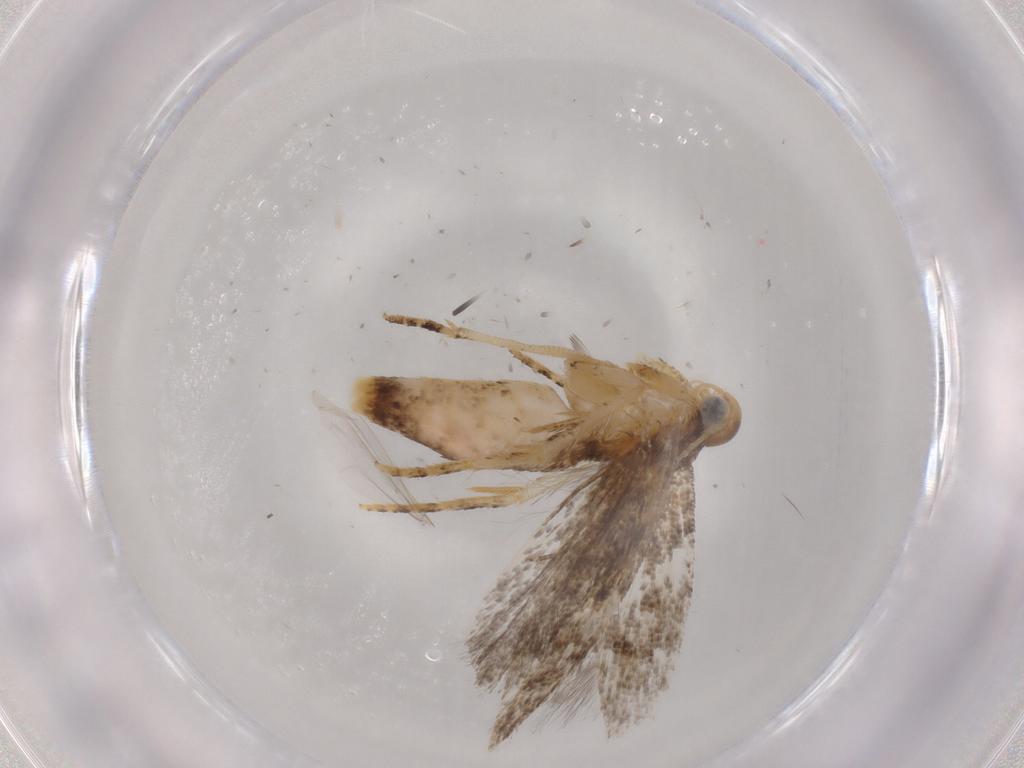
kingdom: Animalia
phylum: Arthropoda
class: Insecta
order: Lepidoptera
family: Gelechiidae
